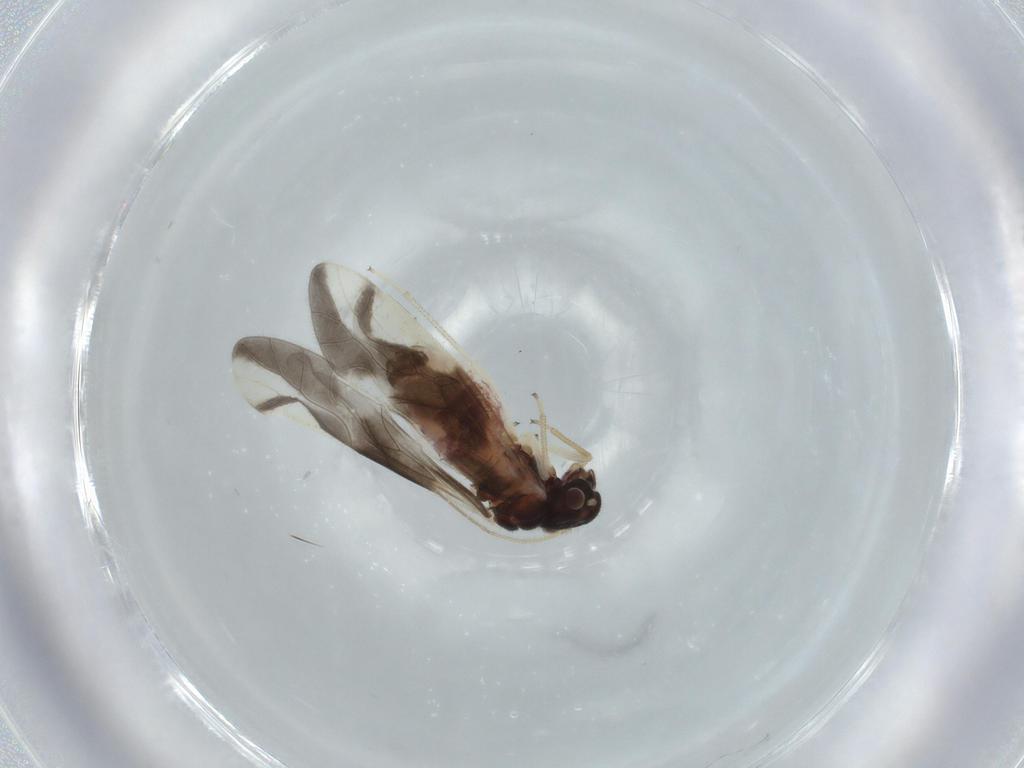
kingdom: Animalia
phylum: Arthropoda
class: Insecta
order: Psocodea
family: Caeciliusidae
